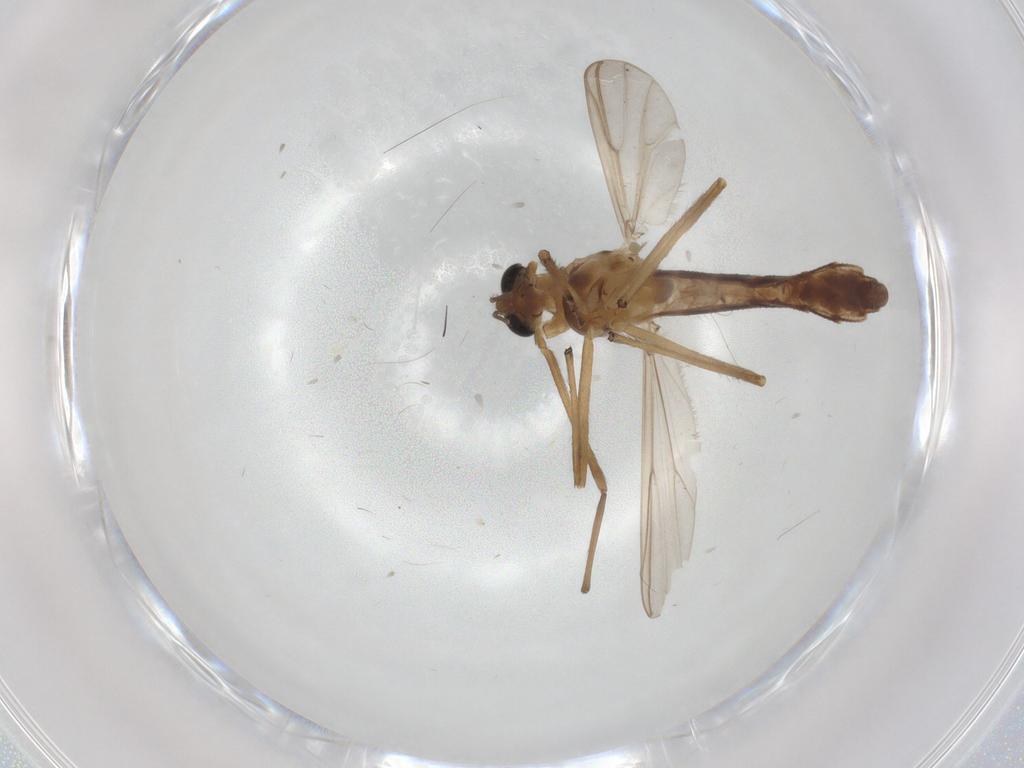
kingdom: Animalia
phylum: Arthropoda
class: Insecta
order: Diptera
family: Chironomidae
